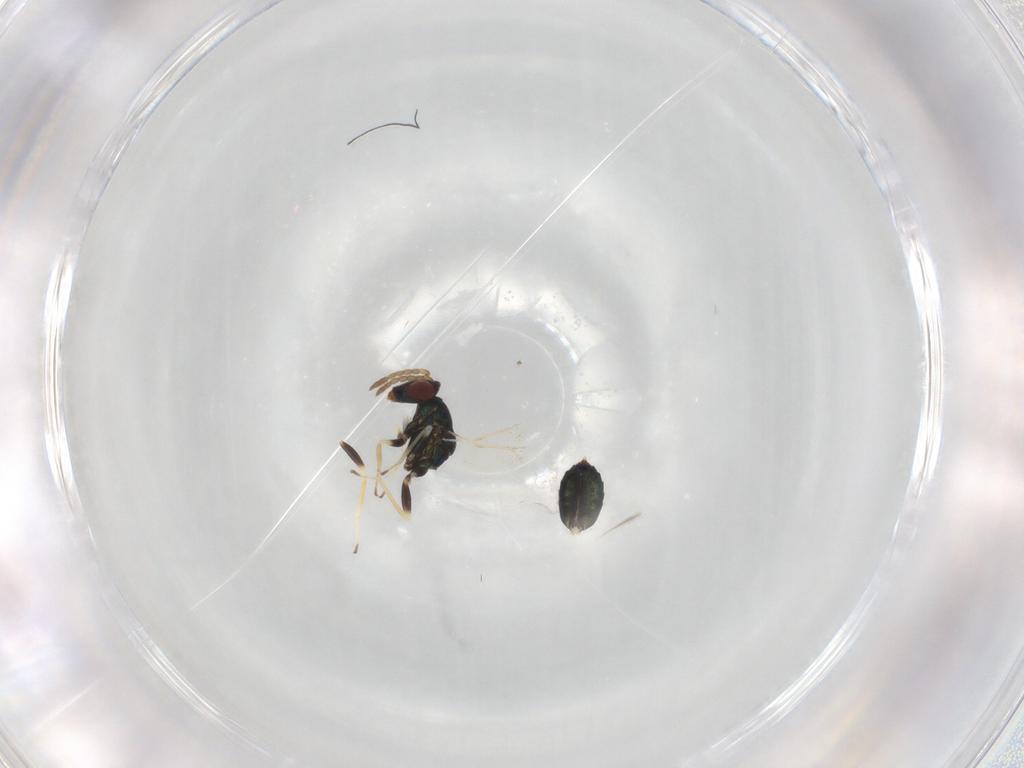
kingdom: Animalia
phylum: Arthropoda
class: Insecta
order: Hymenoptera
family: Eulophidae
